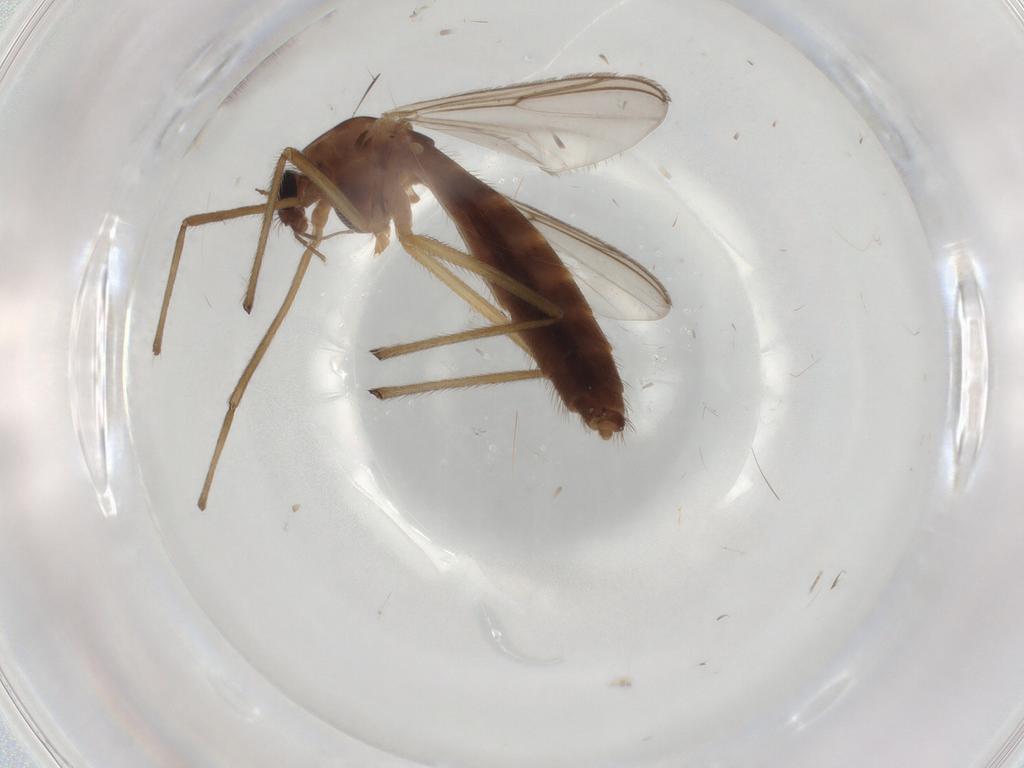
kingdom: Animalia
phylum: Arthropoda
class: Insecta
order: Diptera
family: Chironomidae
